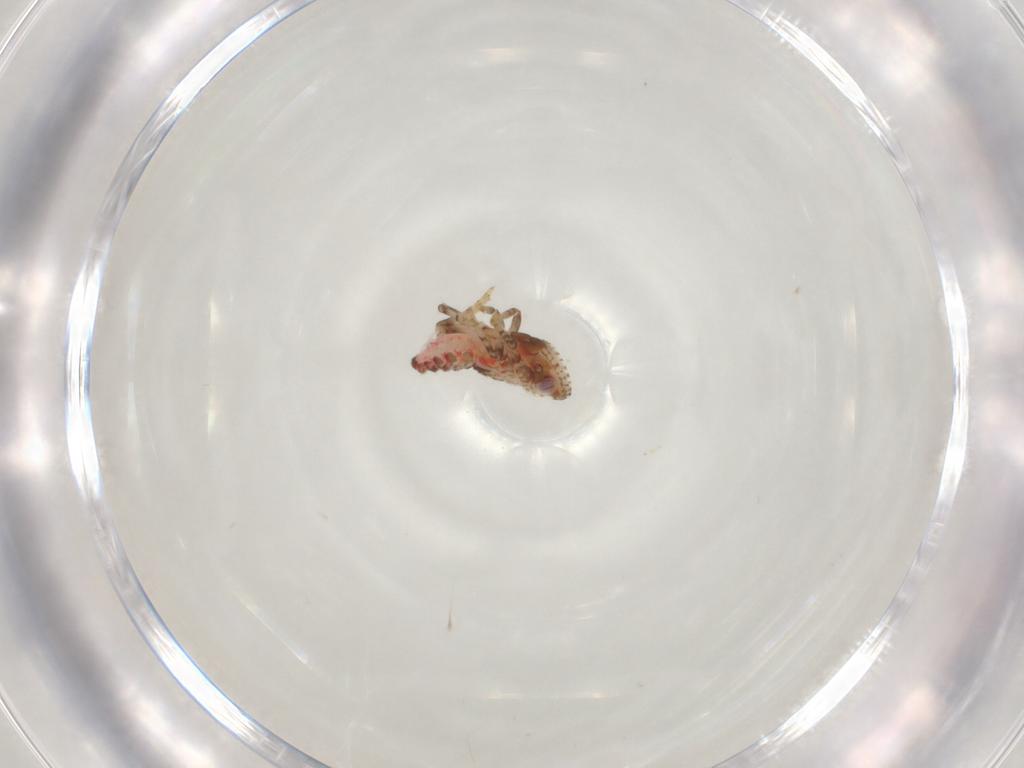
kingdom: Animalia
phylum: Arthropoda
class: Insecta
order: Hemiptera
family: Tropiduchidae
